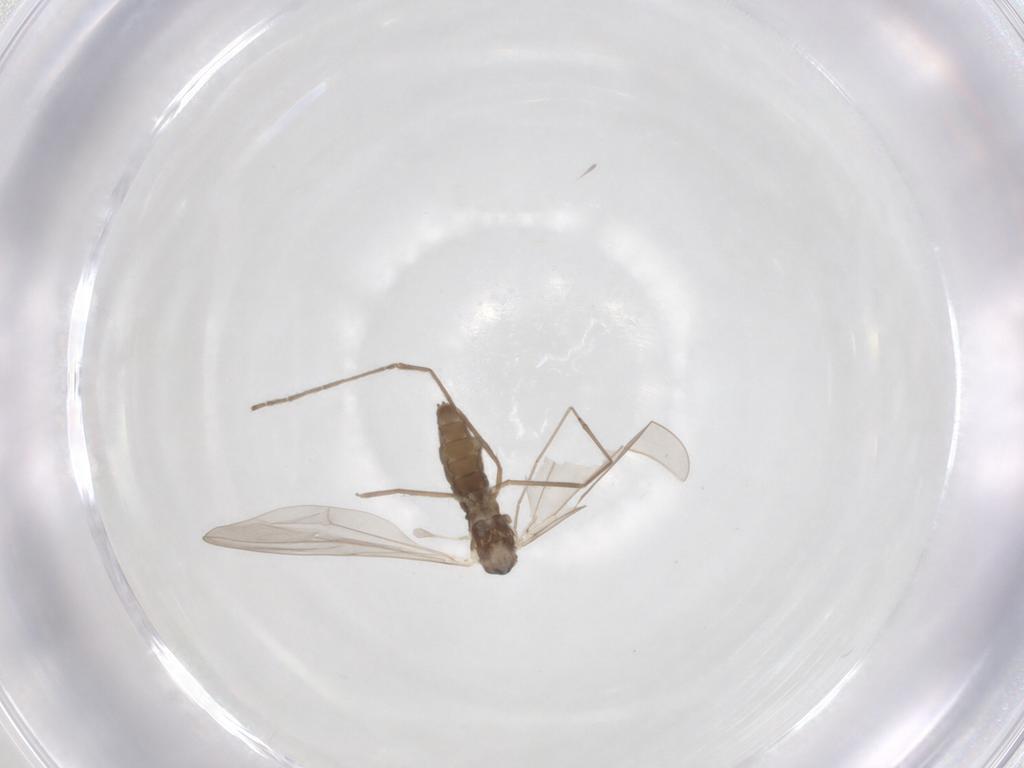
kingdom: Animalia
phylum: Arthropoda
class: Insecta
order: Diptera
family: Cecidomyiidae
